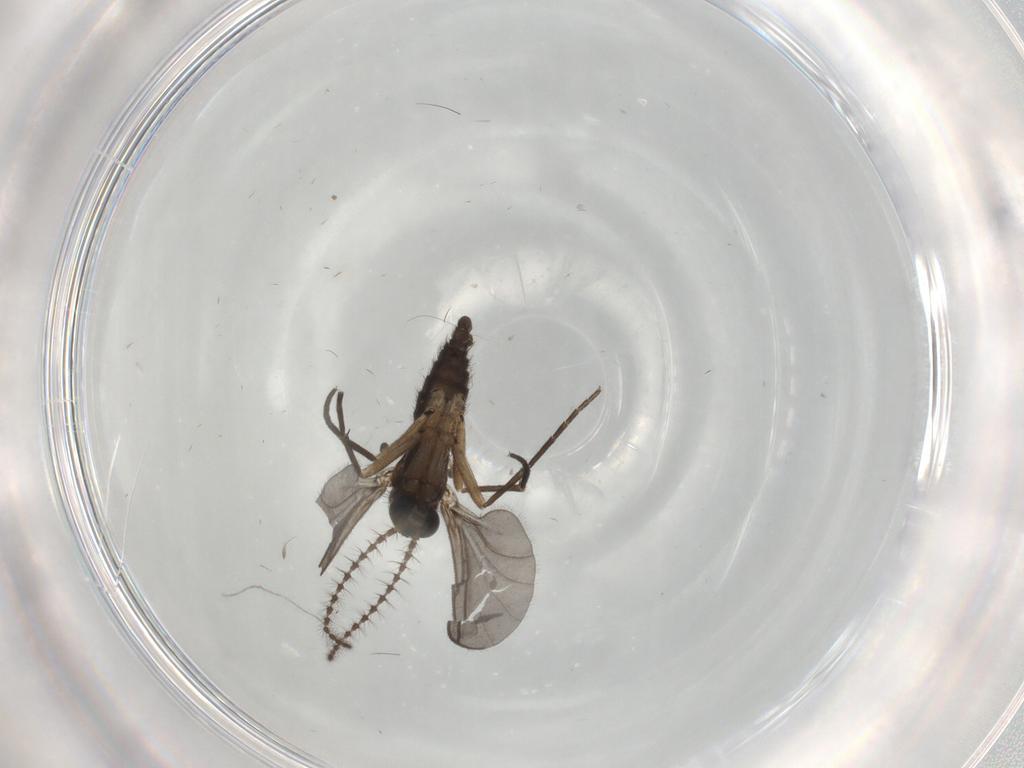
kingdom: Animalia
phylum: Arthropoda
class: Insecta
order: Diptera
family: Sciaridae
